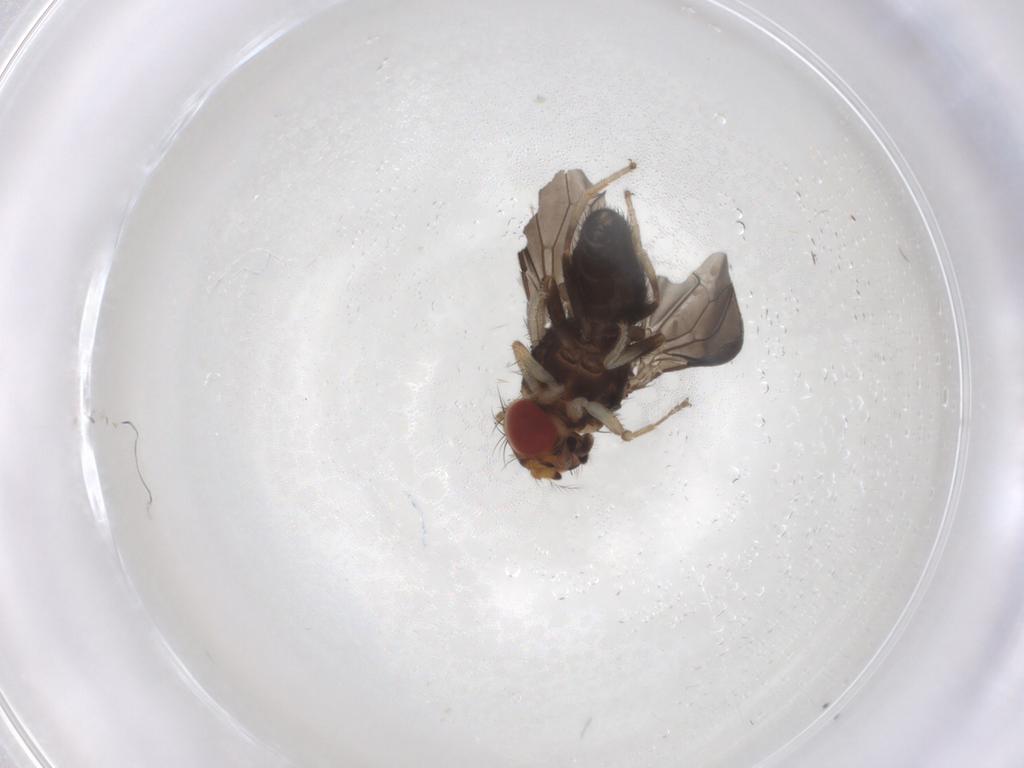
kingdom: Animalia
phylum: Arthropoda
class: Insecta
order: Diptera
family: Drosophilidae
